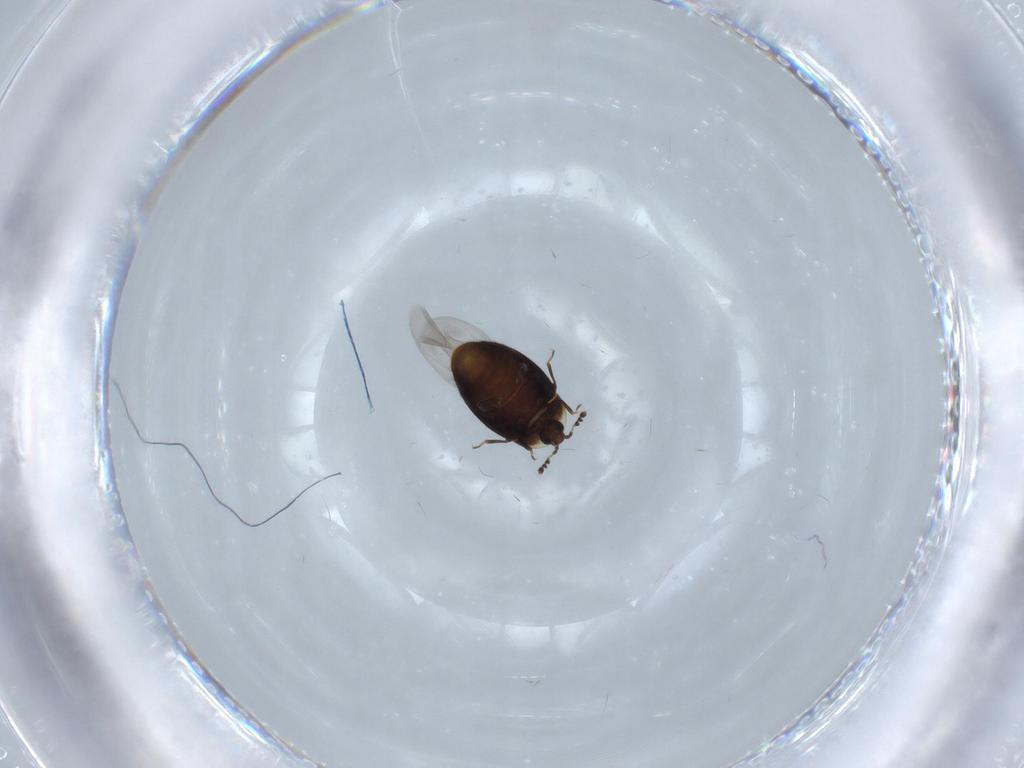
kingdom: Animalia
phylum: Arthropoda
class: Insecta
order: Coleoptera
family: Corylophidae
